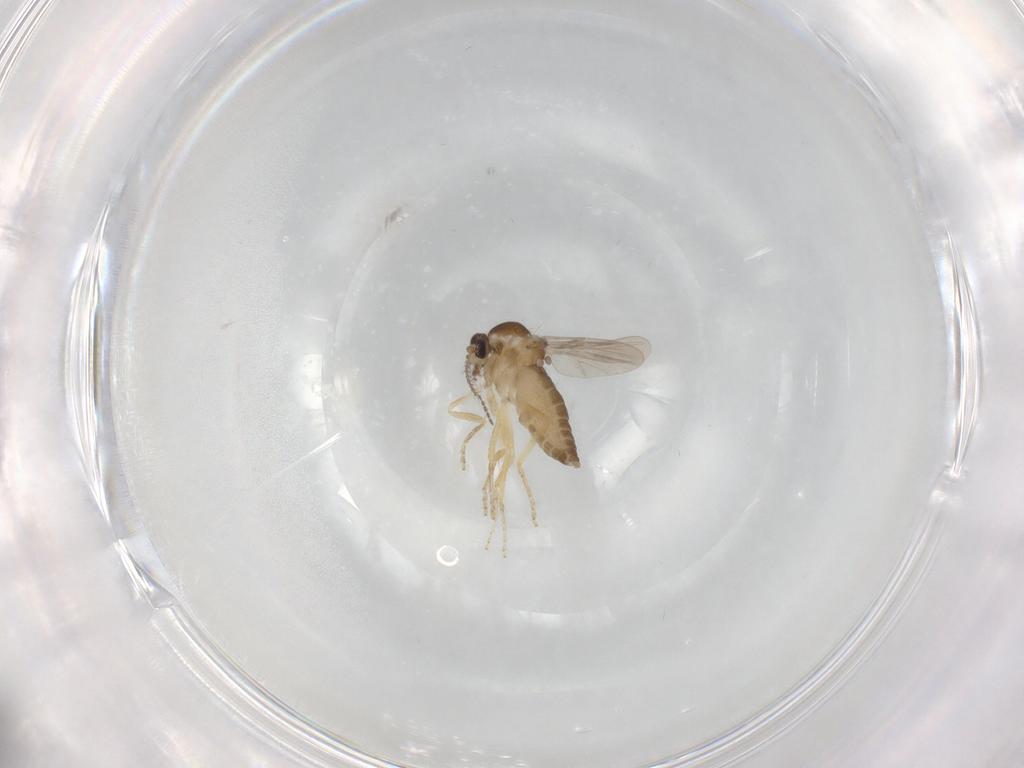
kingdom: Animalia
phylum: Arthropoda
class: Insecta
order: Diptera
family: Ceratopogonidae
